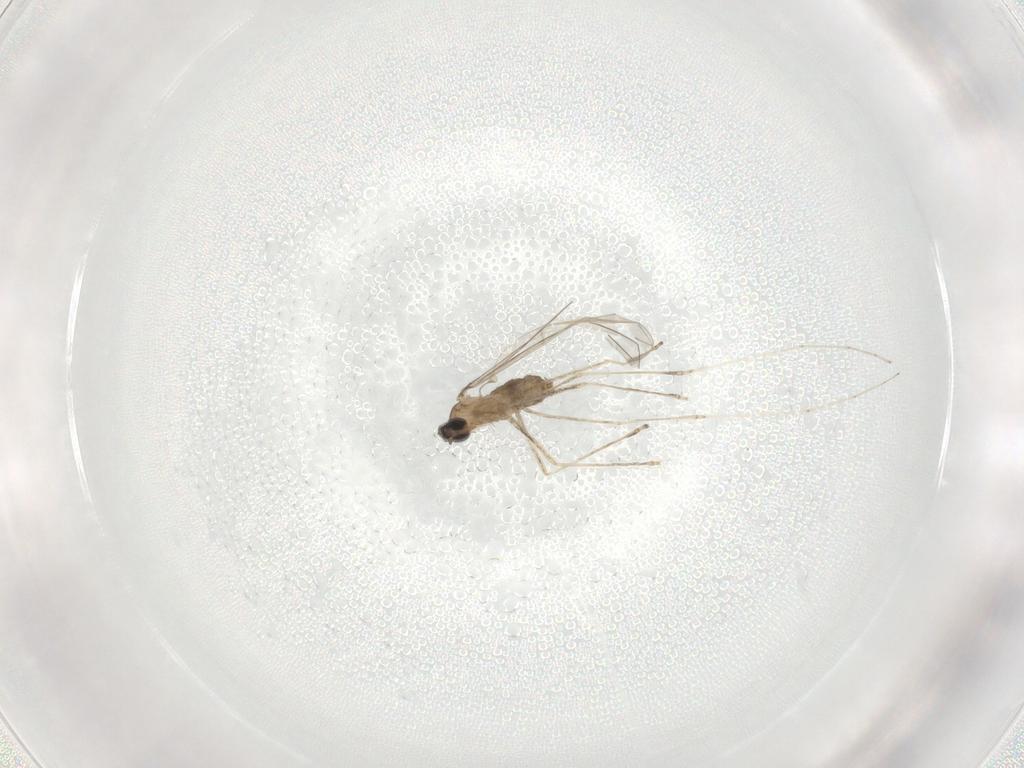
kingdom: Animalia
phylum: Arthropoda
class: Insecta
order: Diptera
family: Cecidomyiidae
